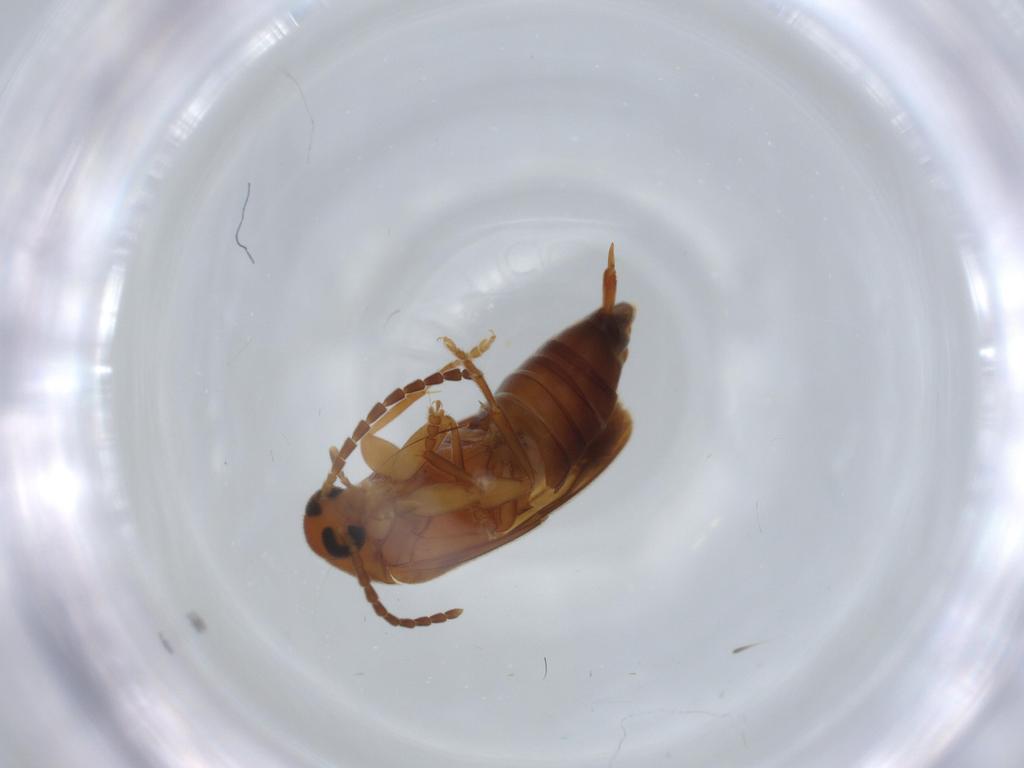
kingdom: Animalia
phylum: Arthropoda
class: Insecta
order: Coleoptera
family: Scraptiidae
